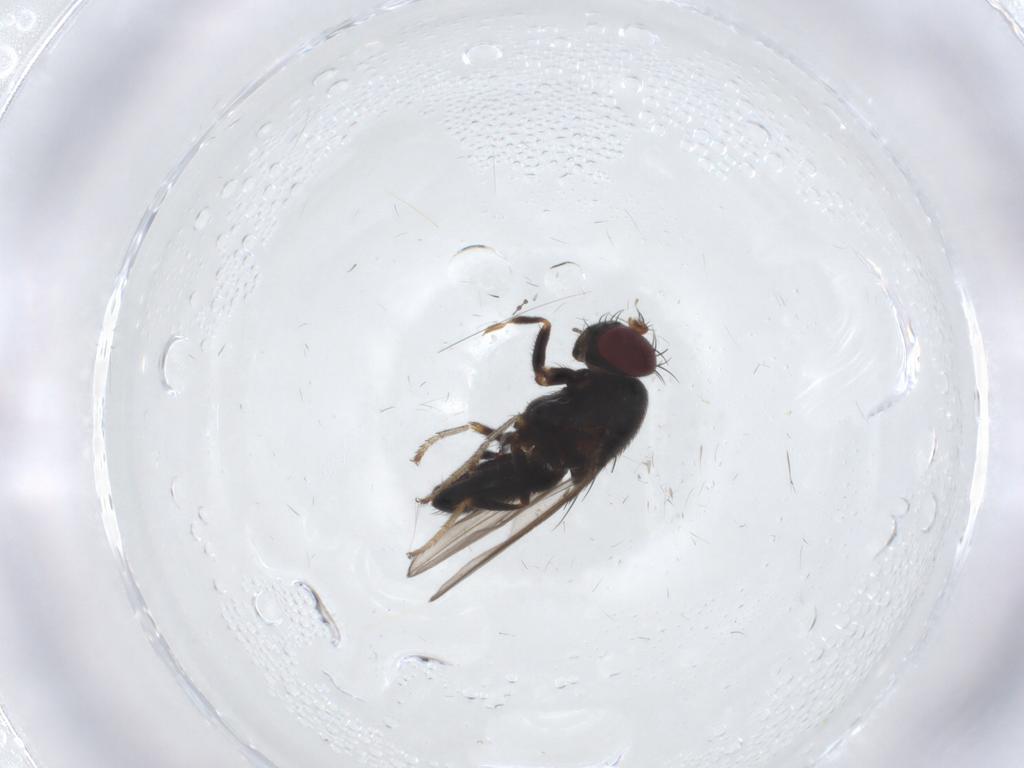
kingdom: Animalia
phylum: Arthropoda
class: Insecta
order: Diptera
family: Ephydridae
